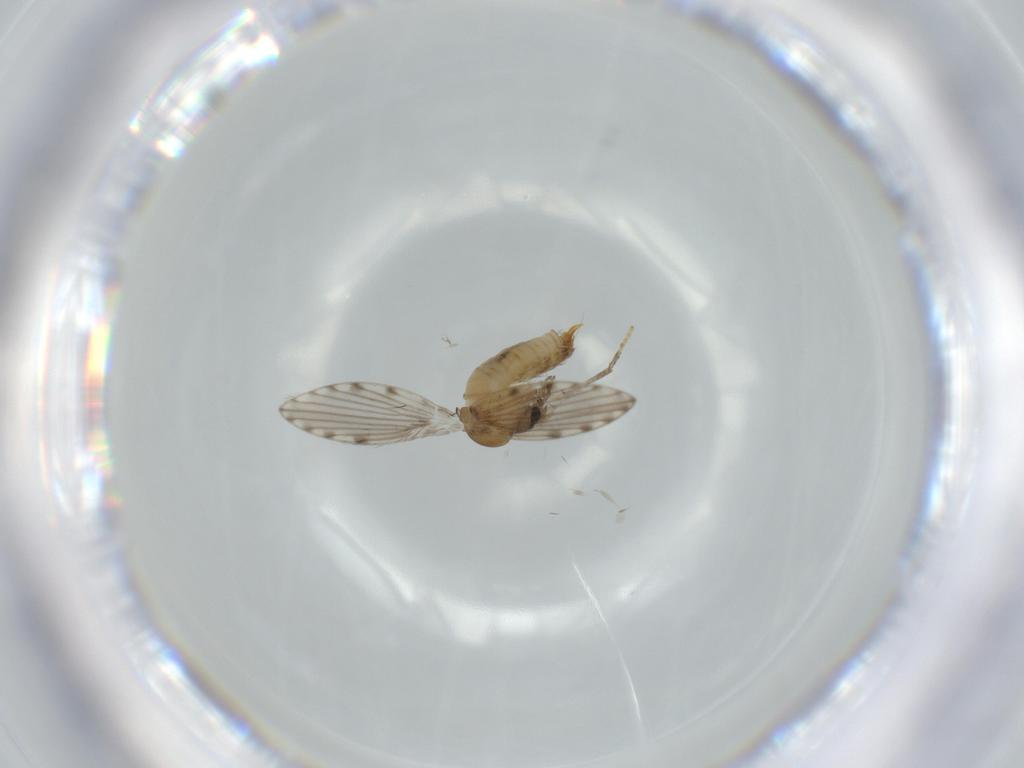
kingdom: Animalia
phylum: Arthropoda
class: Insecta
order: Diptera
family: Psychodidae
